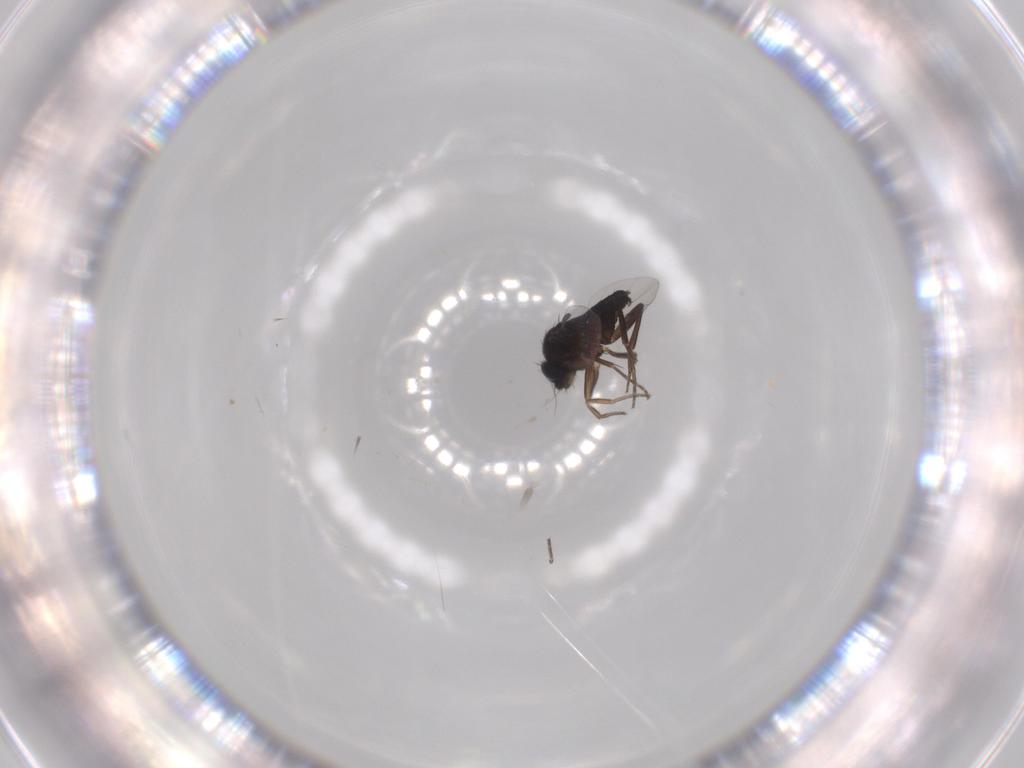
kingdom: Animalia
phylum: Arthropoda
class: Insecta
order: Diptera
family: Phoridae
